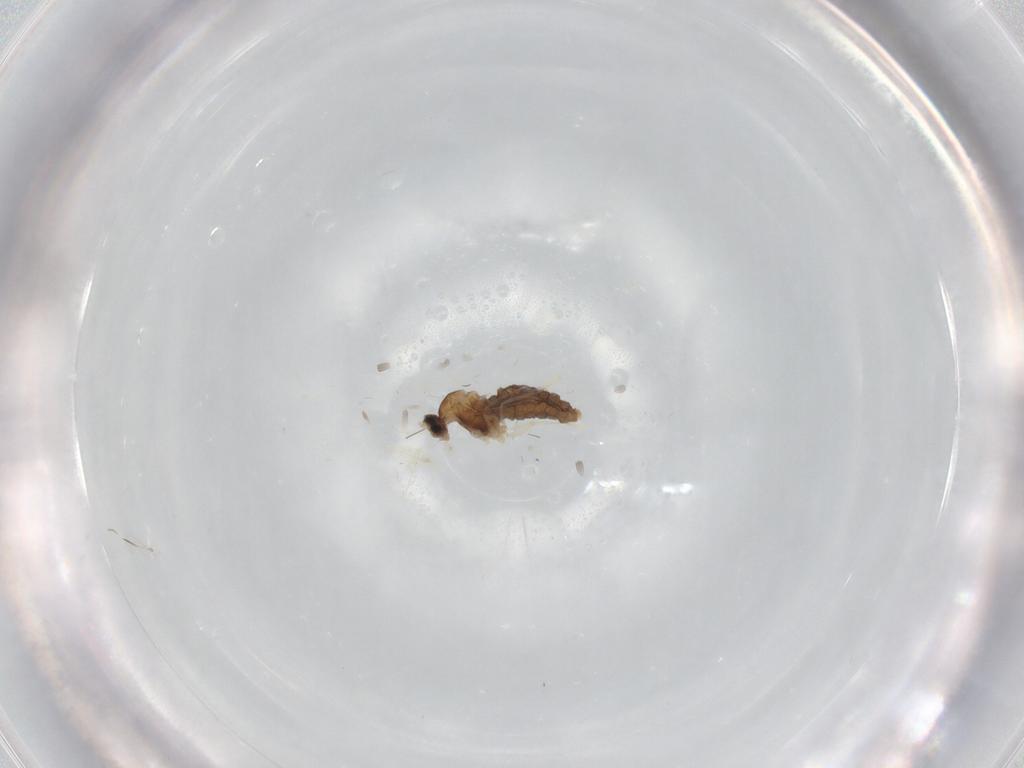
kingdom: Animalia
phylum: Arthropoda
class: Insecta
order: Diptera
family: Cecidomyiidae
